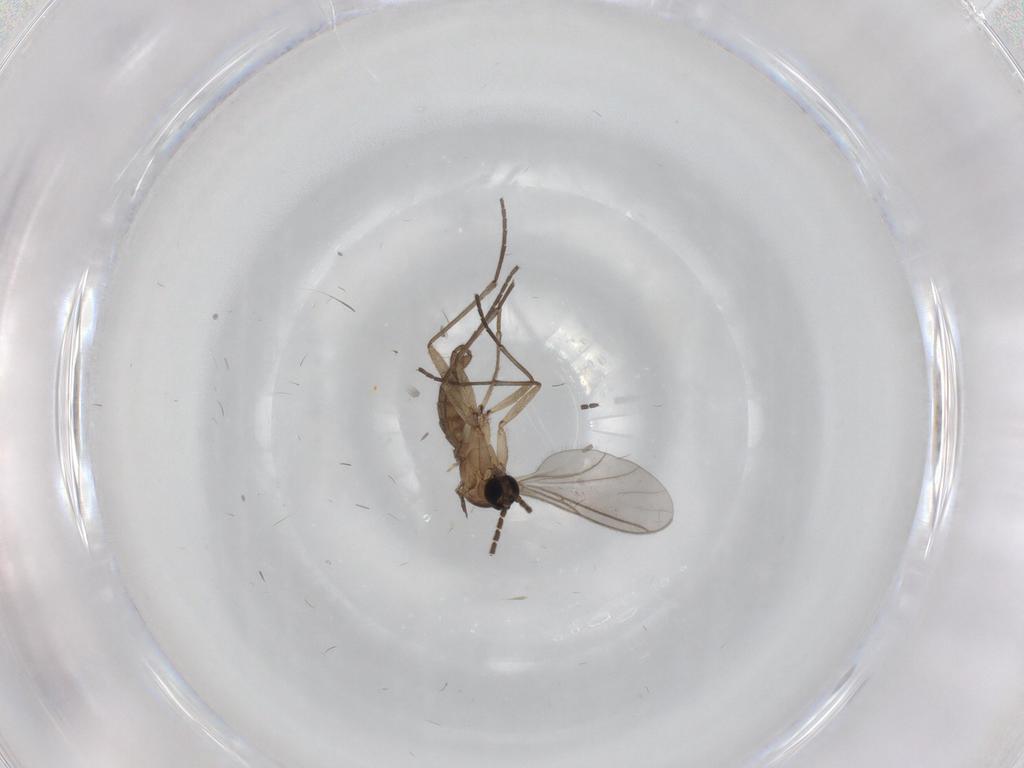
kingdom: Animalia
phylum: Arthropoda
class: Insecta
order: Diptera
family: Sciaridae
